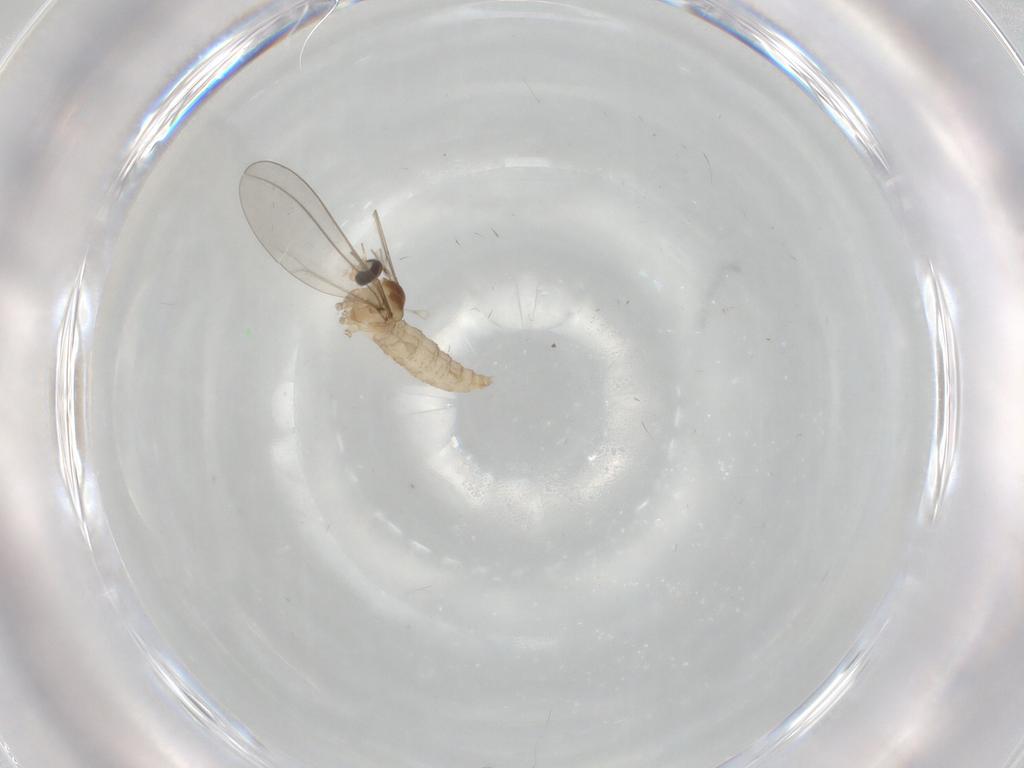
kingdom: Animalia
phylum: Arthropoda
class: Insecta
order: Diptera
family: Cecidomyiidae
